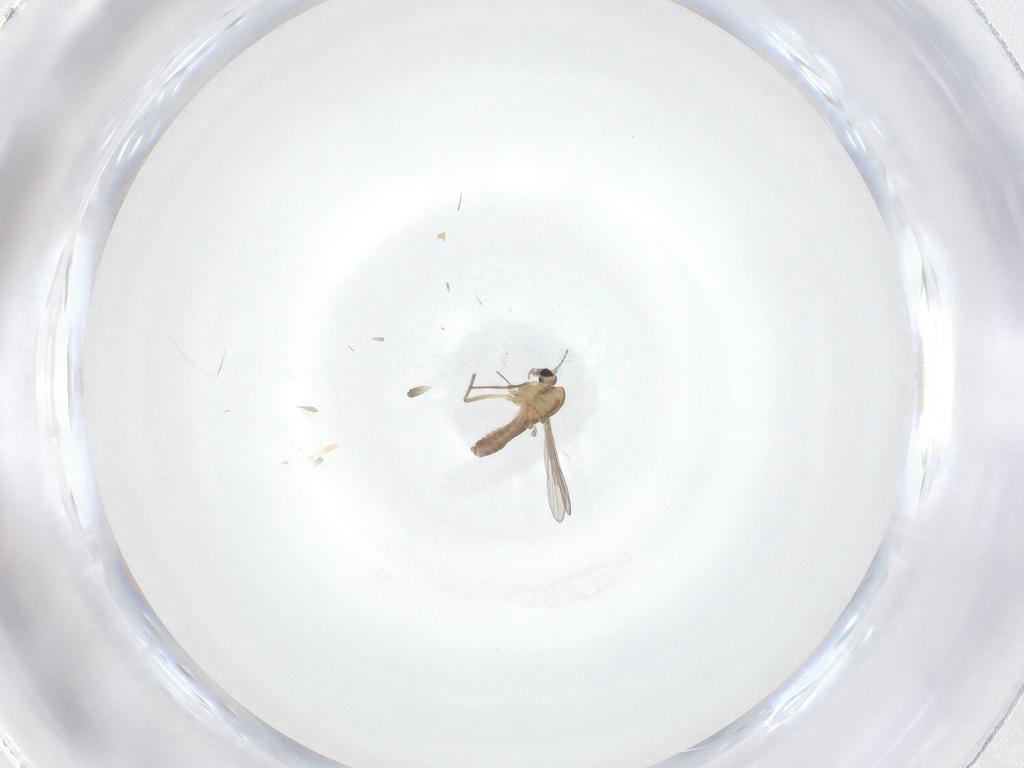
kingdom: Animalia
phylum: Arthropoda
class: Insecta
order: Diptera
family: Chironomidae
